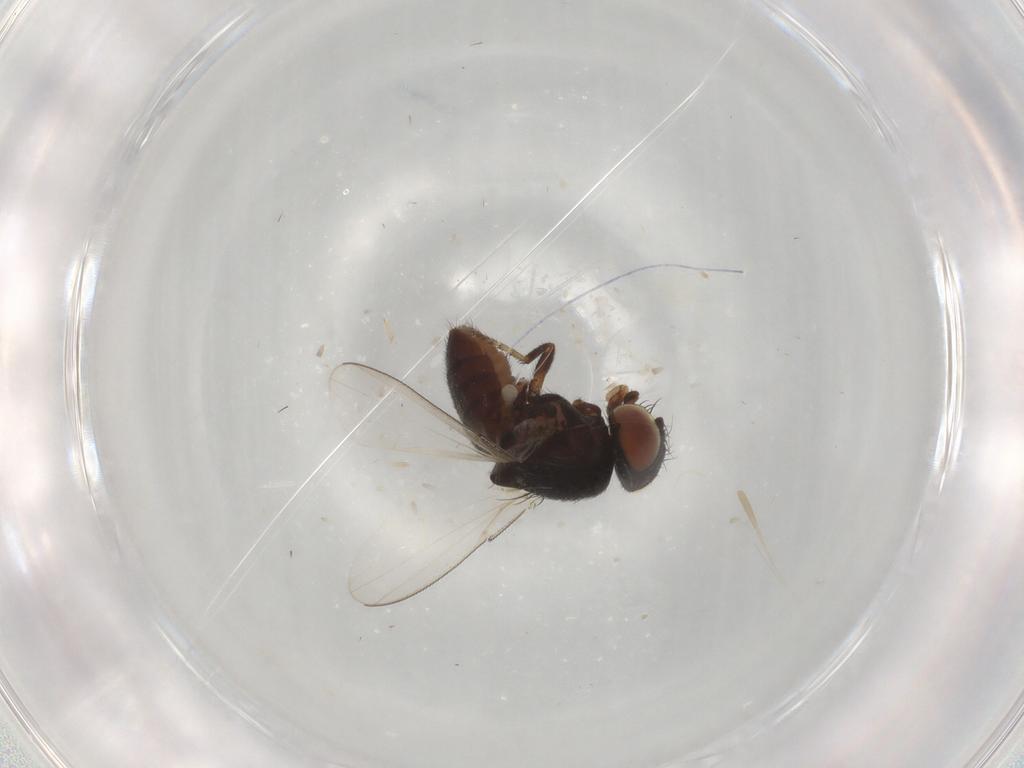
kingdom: Animalia
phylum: Arthropoda
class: Insecta
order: Diptera
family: Milichiidae
